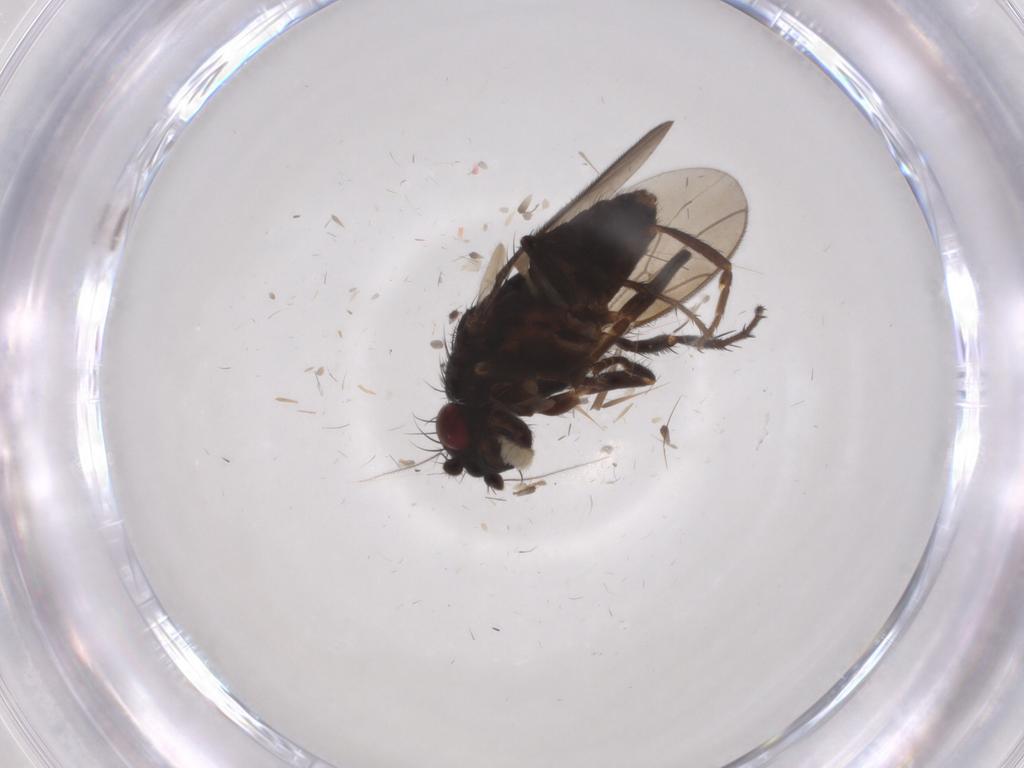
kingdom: Animalia
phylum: Arthropoda
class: Insecta
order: Diptera
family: Sphaeroceridae
